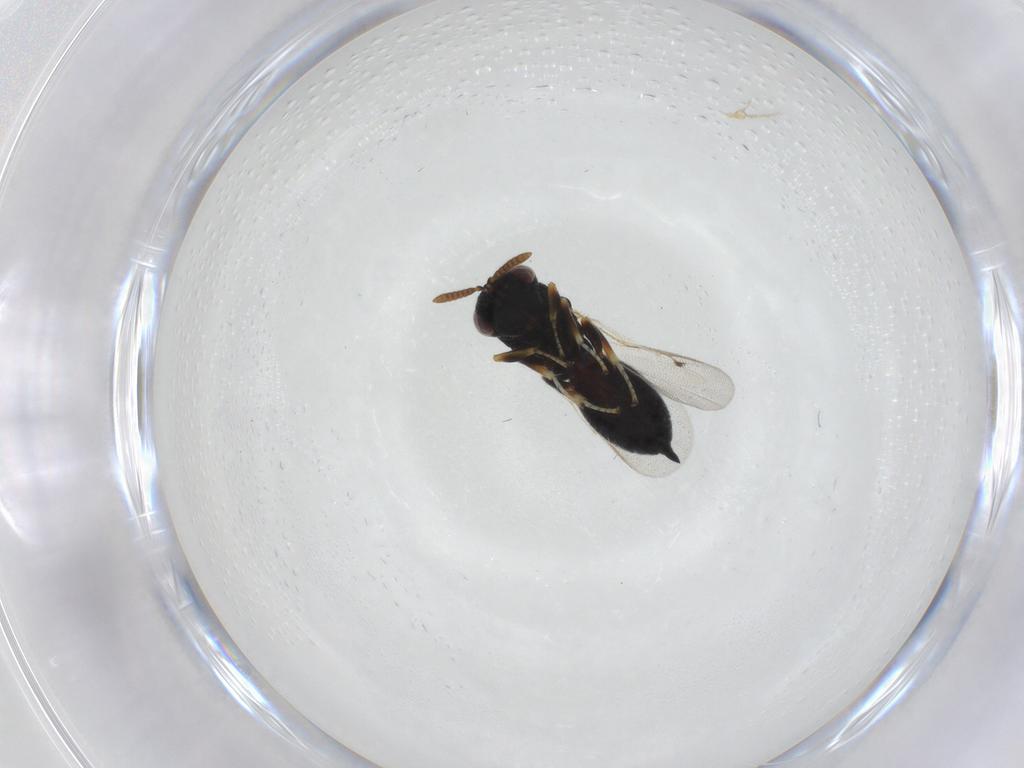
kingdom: Animalia
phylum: Arthropoda
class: Insecta
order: Hymenoptera
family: Eurytomidae
